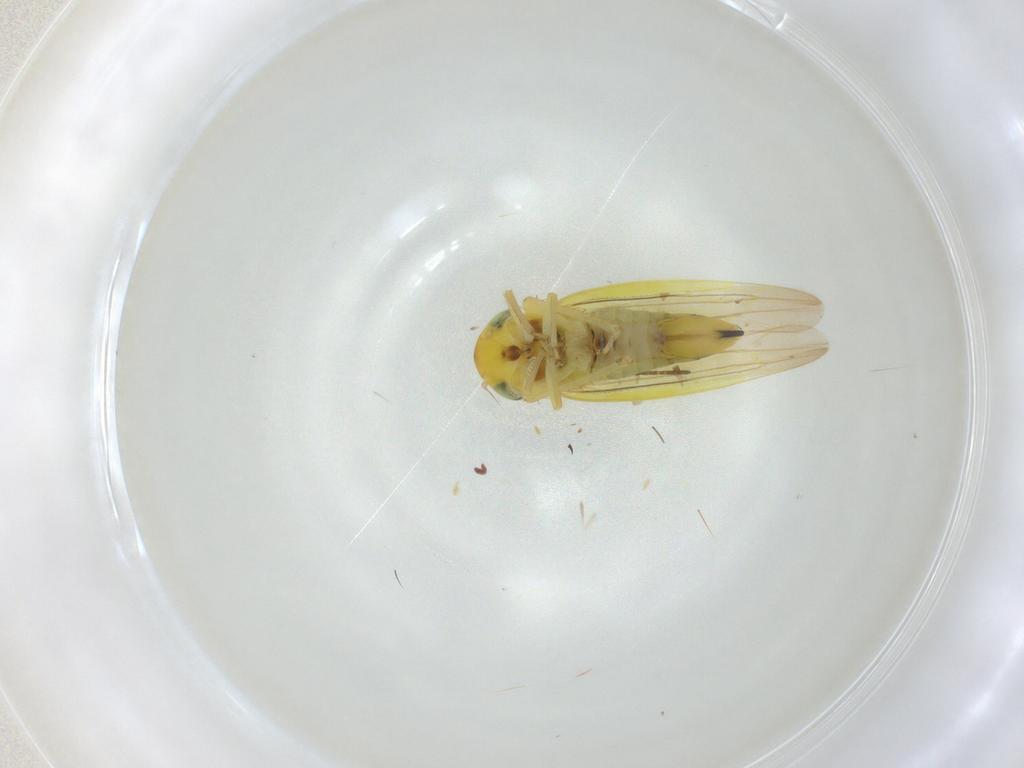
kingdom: Animalia
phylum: Arthropoda
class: Insecta
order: Hemiptera
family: Cicadellidae
